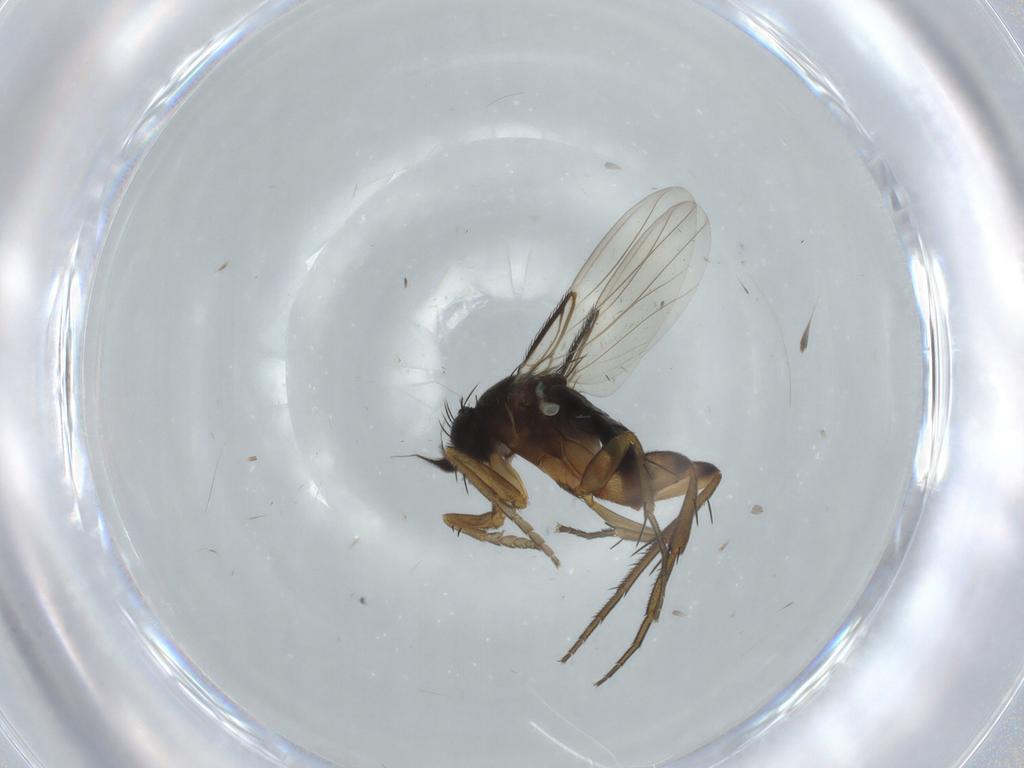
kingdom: Animalia
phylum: Arthropoda
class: Insecta
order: Diptera
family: Phoridae
